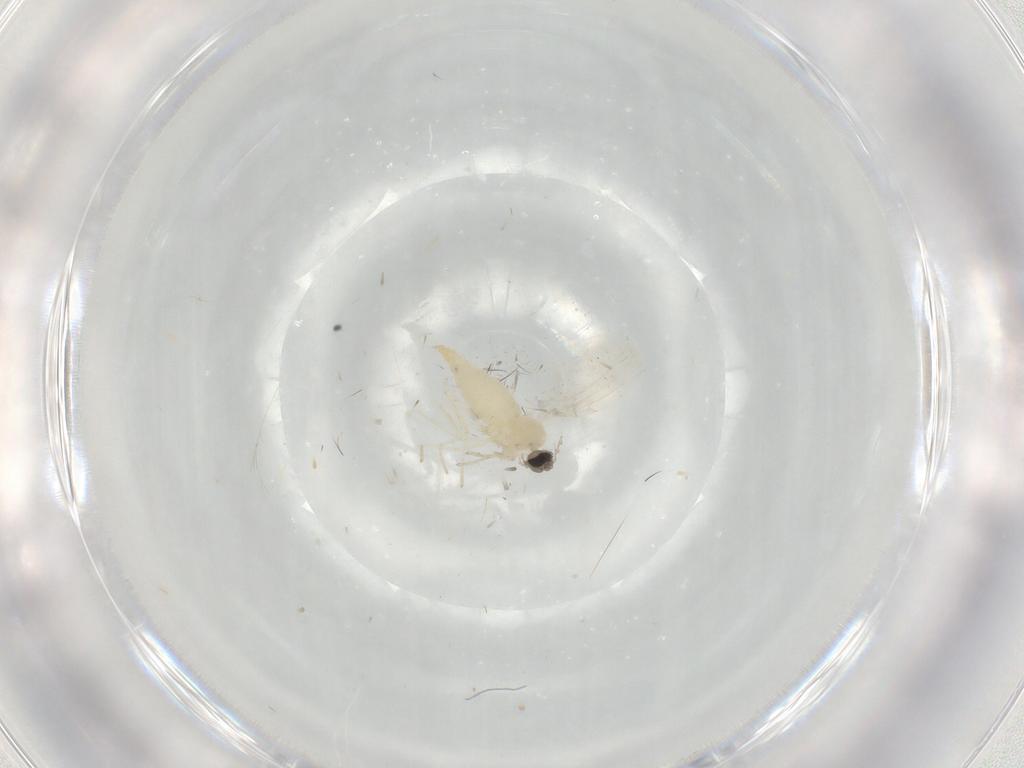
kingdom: Animalia
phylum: Arthropoda
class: Insecta
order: Diptera
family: Cecidomyiidae
